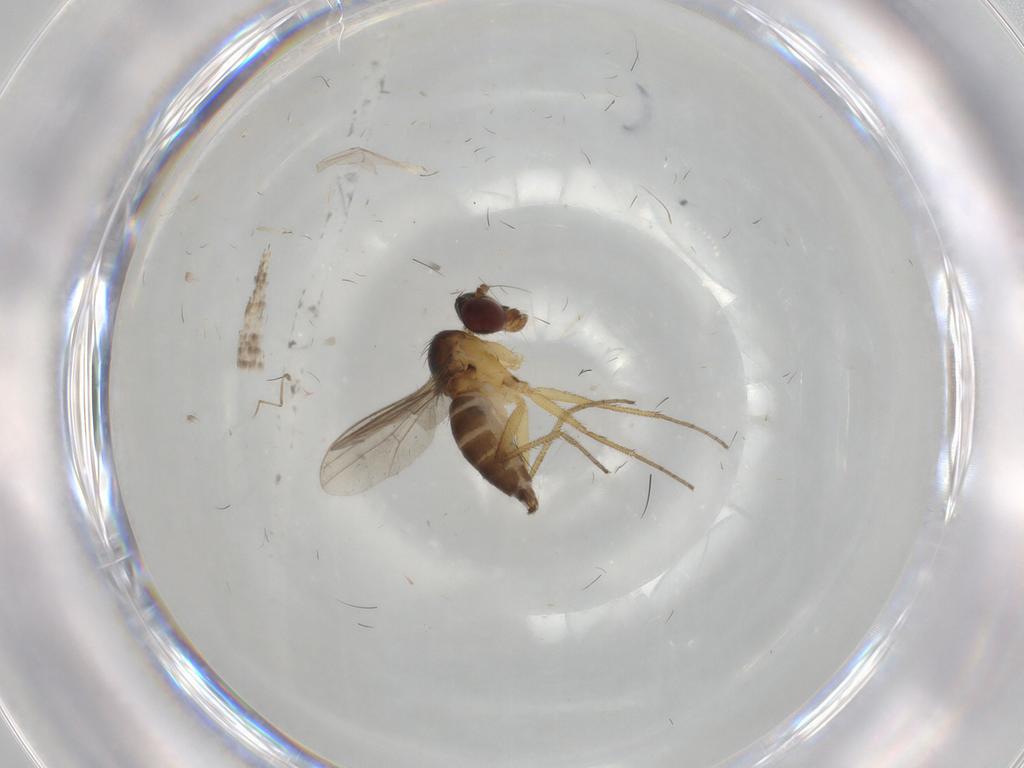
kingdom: Animalia
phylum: Arthropoda
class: Insecta
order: Diptera
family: Dolichopodidae
